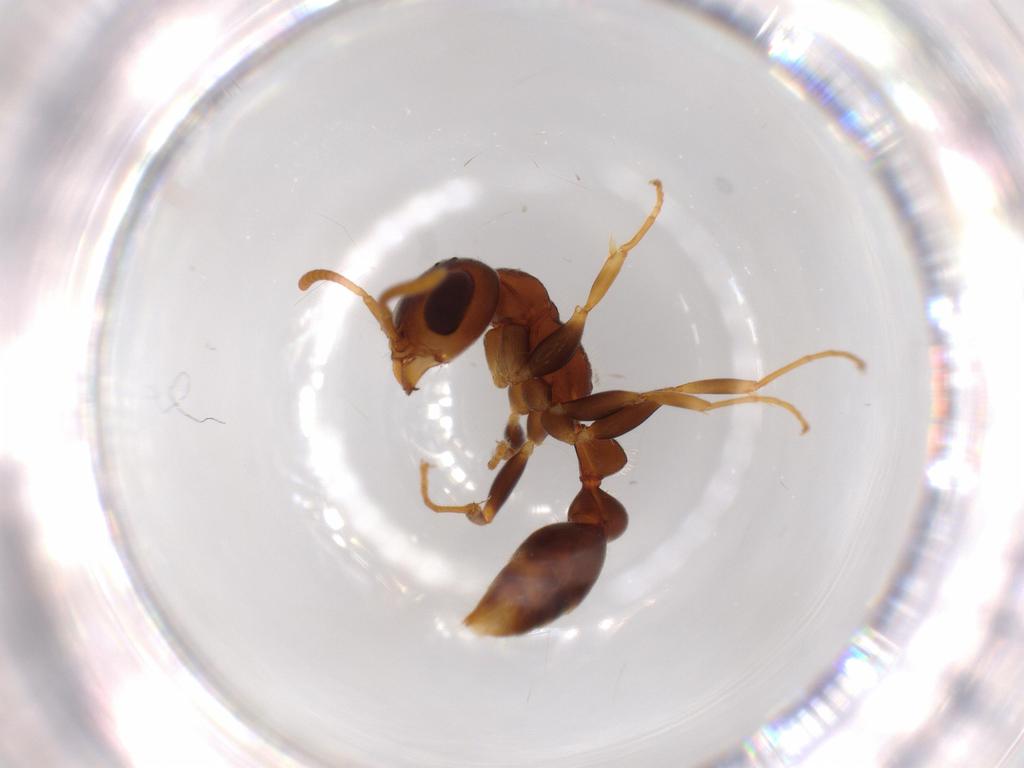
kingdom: Animalia
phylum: Arthropoda
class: Insecta
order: Hymenoptera
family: Formicidae
